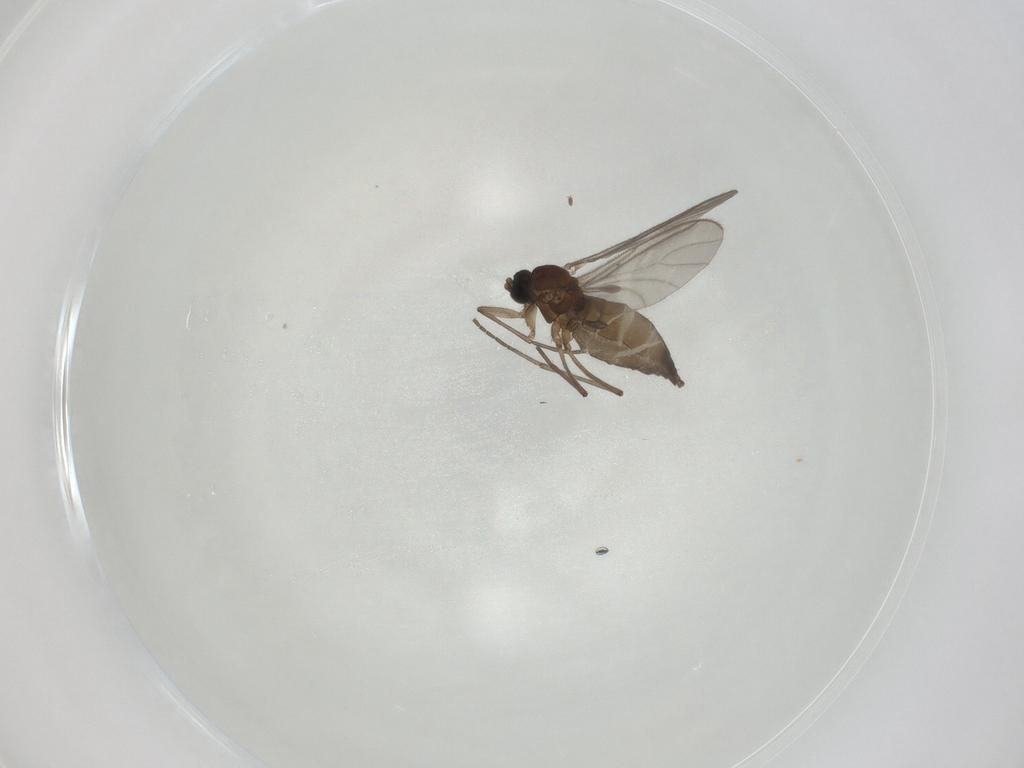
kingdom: Animalia
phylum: Arthropoda
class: Insecta
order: Diptera
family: Sciaridae
